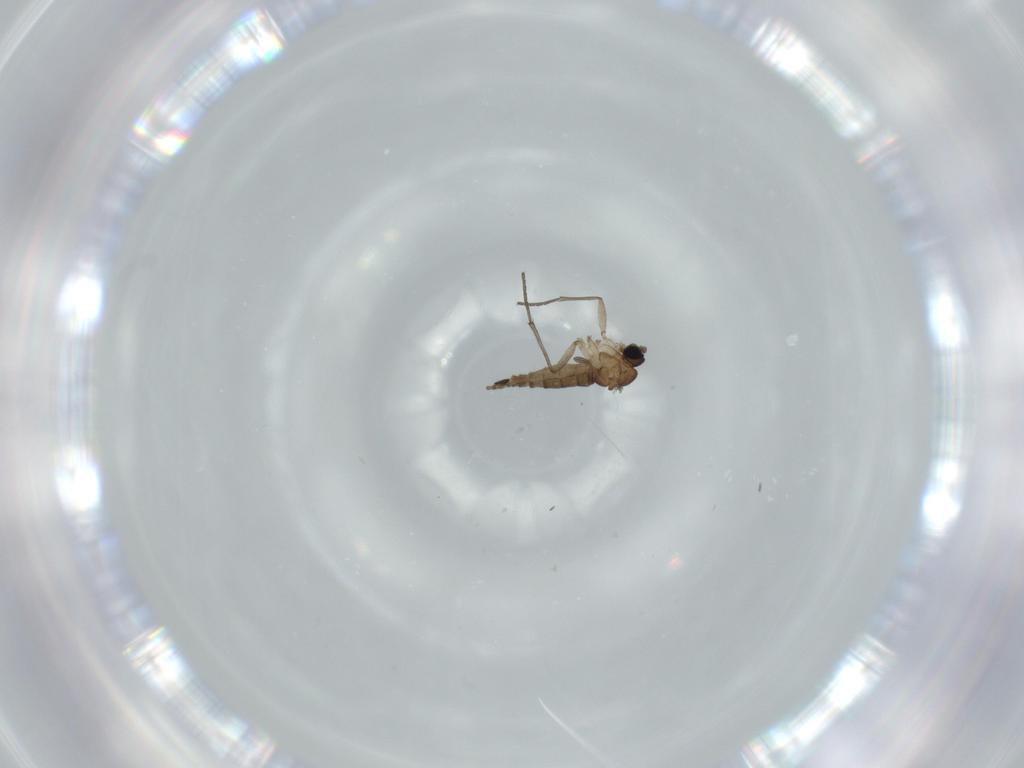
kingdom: Animalia
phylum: Arthropoda
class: Insecta
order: Diptera
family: Sciaridae
